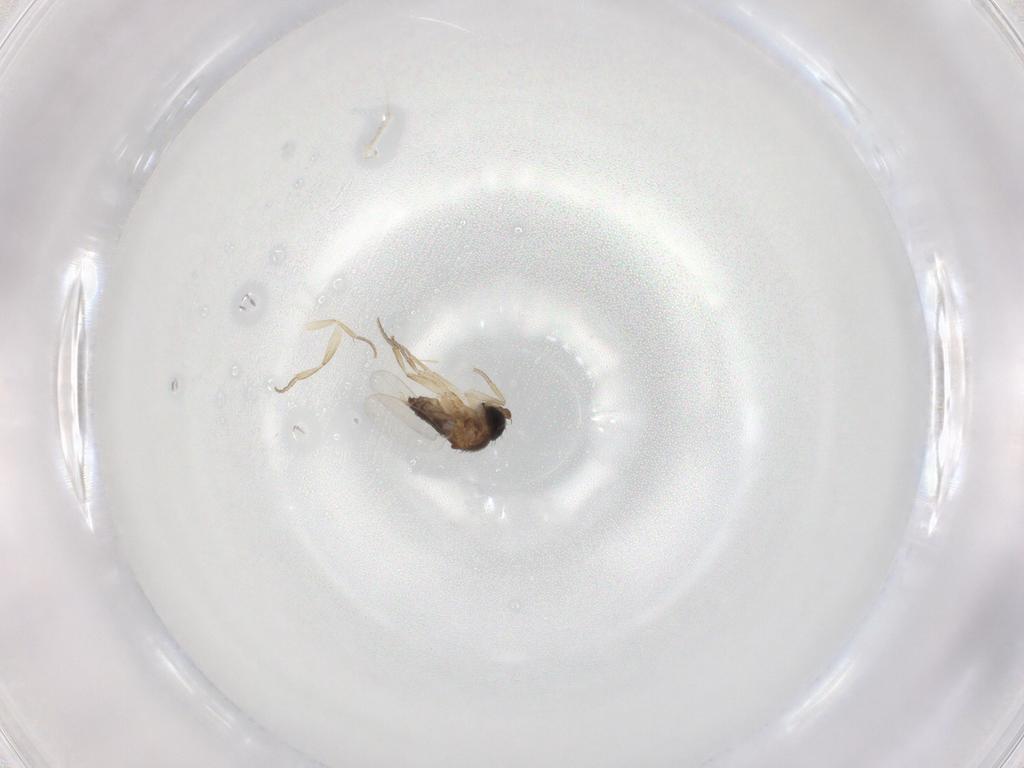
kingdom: Animalia
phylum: Arthropoda
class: Insecta
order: Diptera
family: Phoridae
